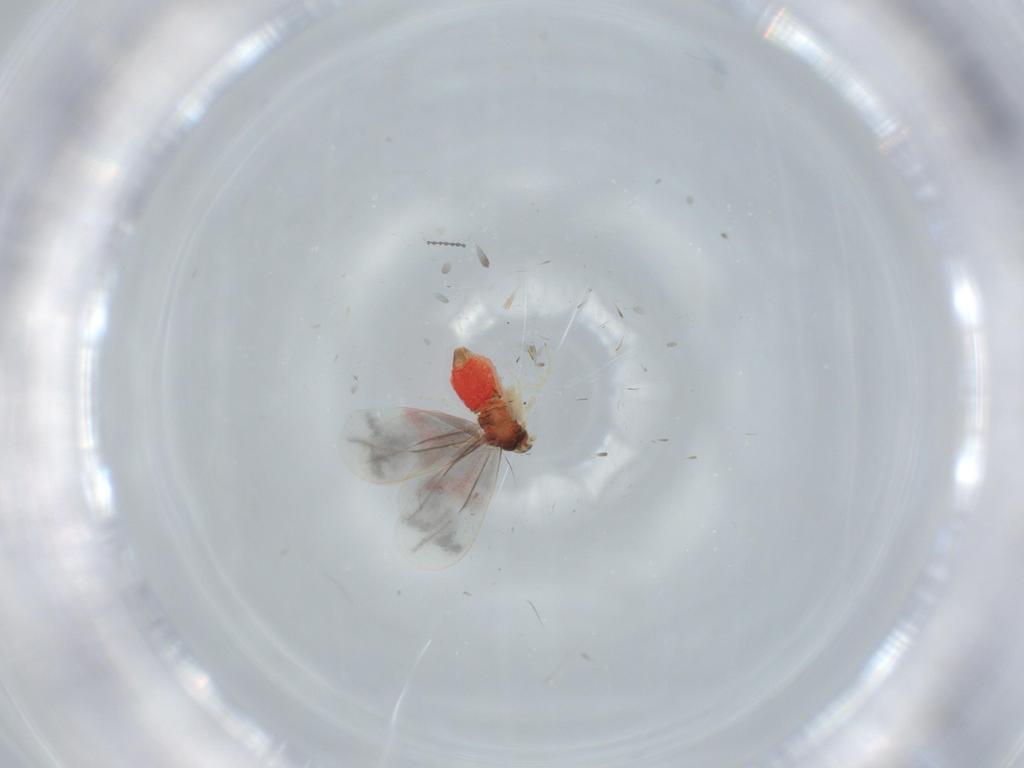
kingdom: Animalia
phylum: Arthropoda
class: Insecta
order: Hemiptera
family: Aleyrodidae
